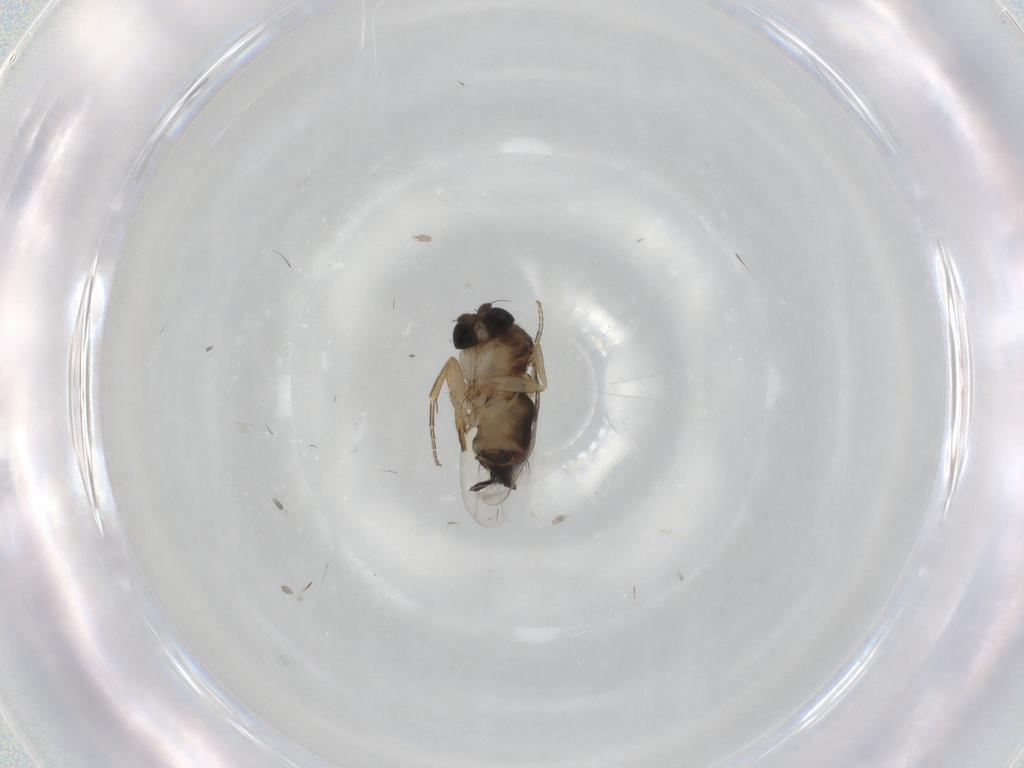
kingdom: Animalia
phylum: Arthropoda
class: Insecta
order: Diptera
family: Phoridae
